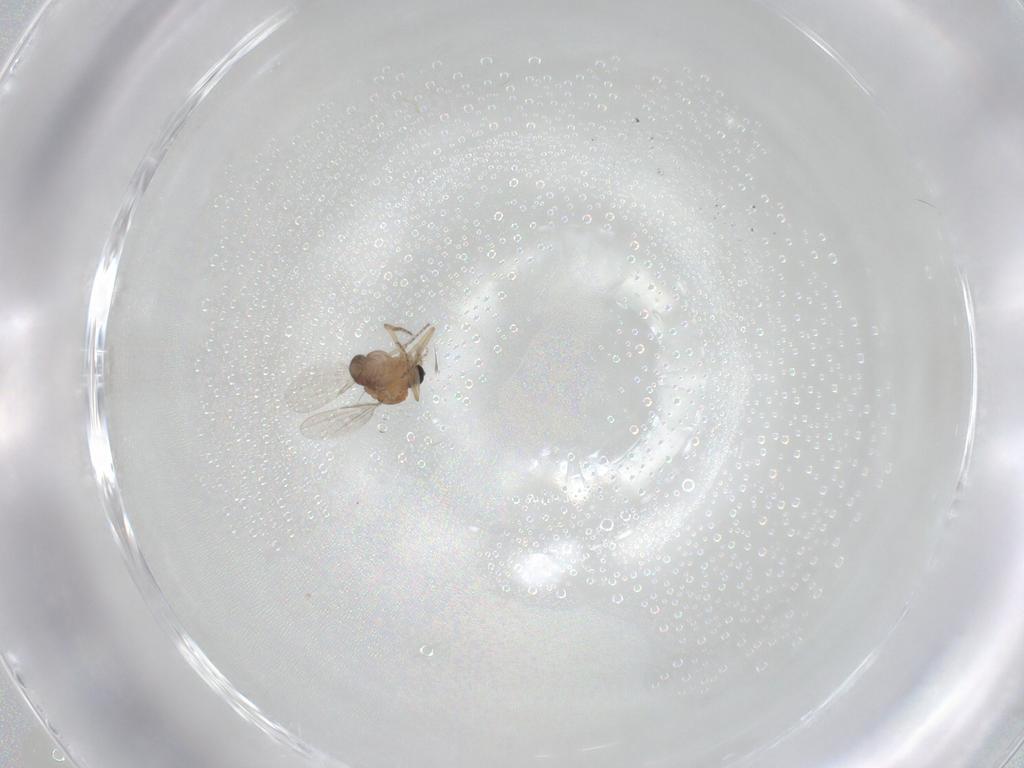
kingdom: Animalia
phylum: Arthropoda
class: Insecta
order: Diptera
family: Ceratopogonidae
